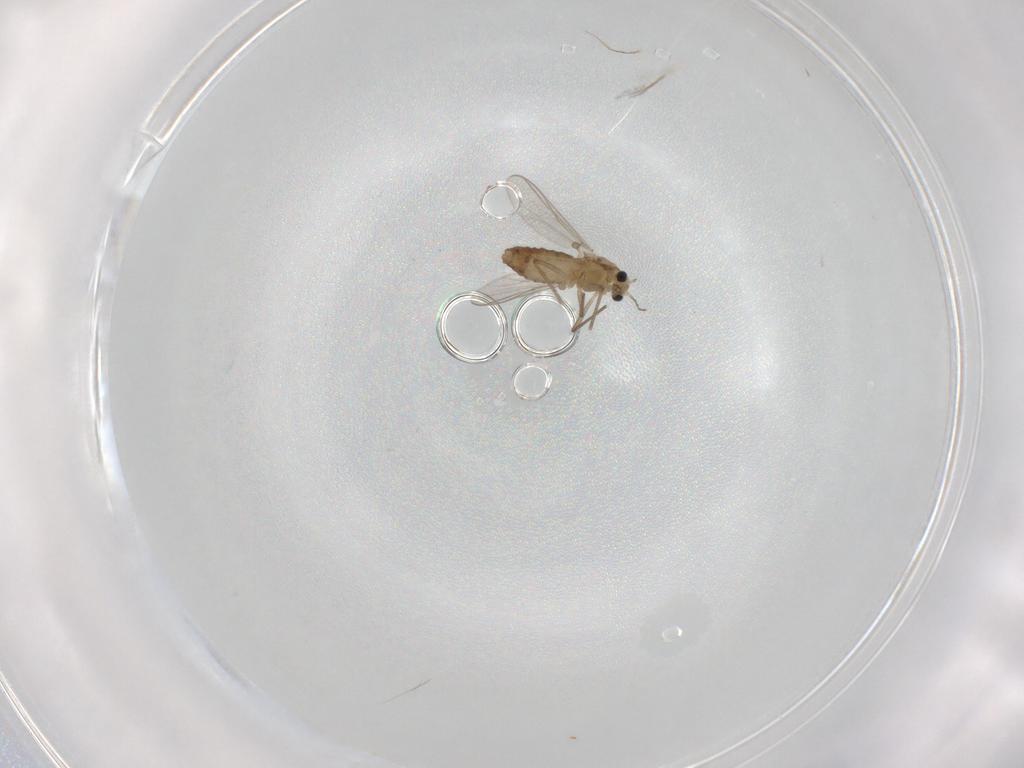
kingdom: Animalia
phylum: Arthropoda
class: Insecta
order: Diptera
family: Chironomidae
